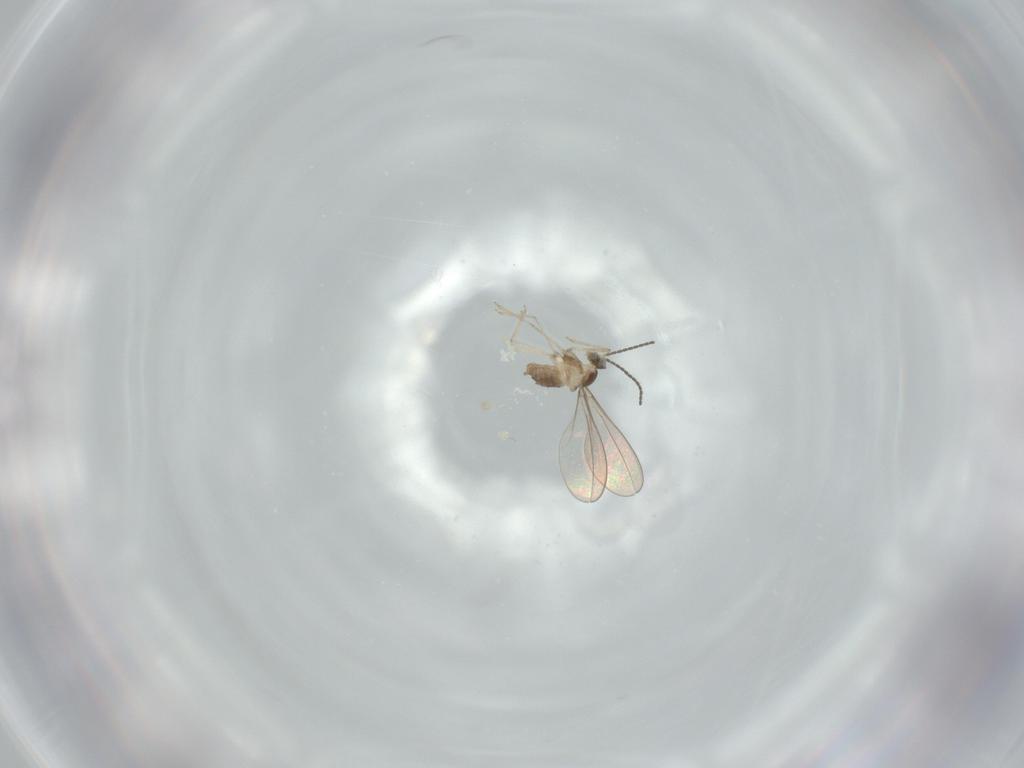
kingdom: Animalia
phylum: Arthropoda
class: Insecta
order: Diptera
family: Cecidomyiidae
